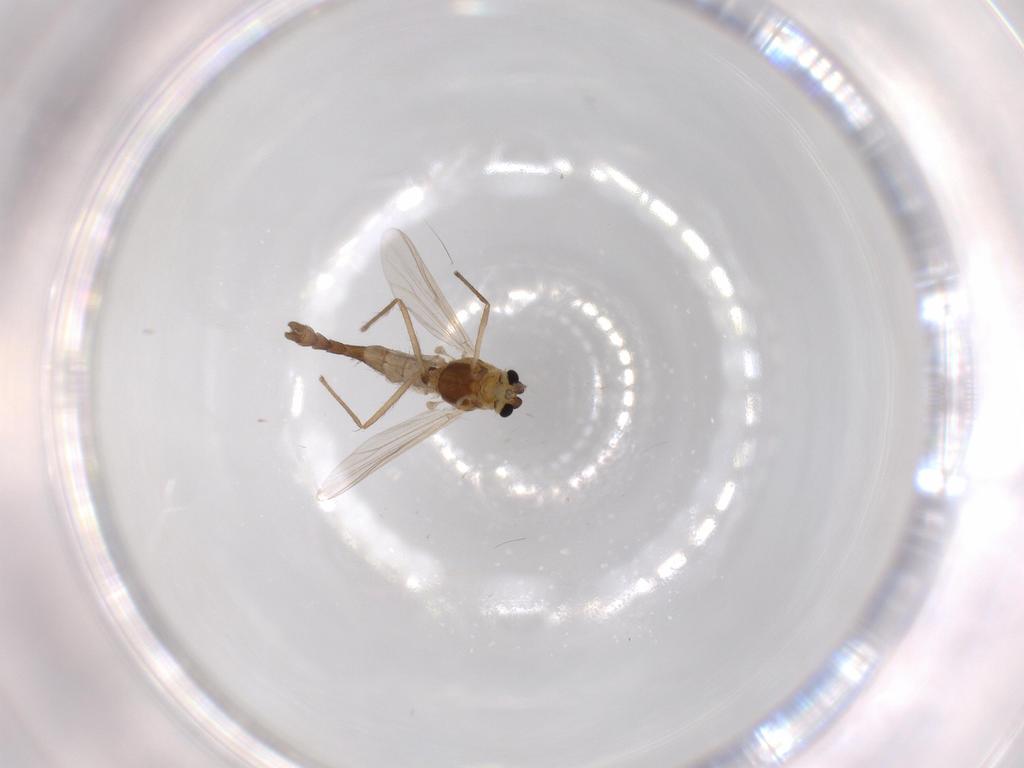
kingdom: Animalia
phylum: Arthropoda
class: Insecta
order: Diptera
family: Chironomidae
